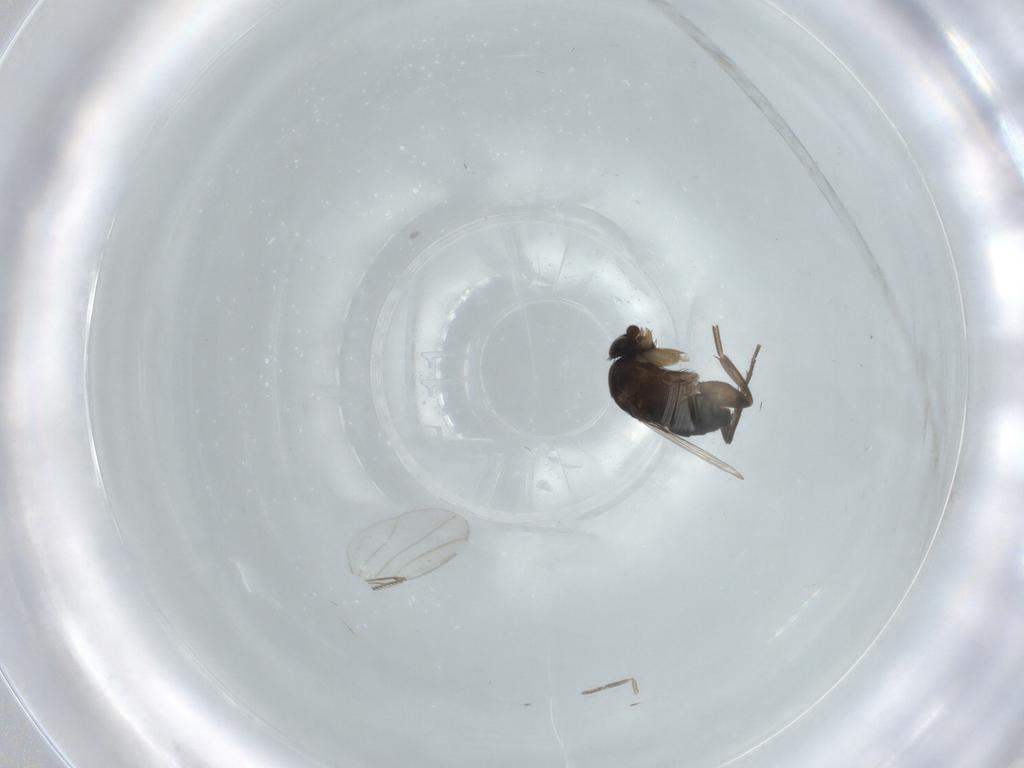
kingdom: Animalia
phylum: Arthropoda
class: Insecta
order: Diptera
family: Phoridae
